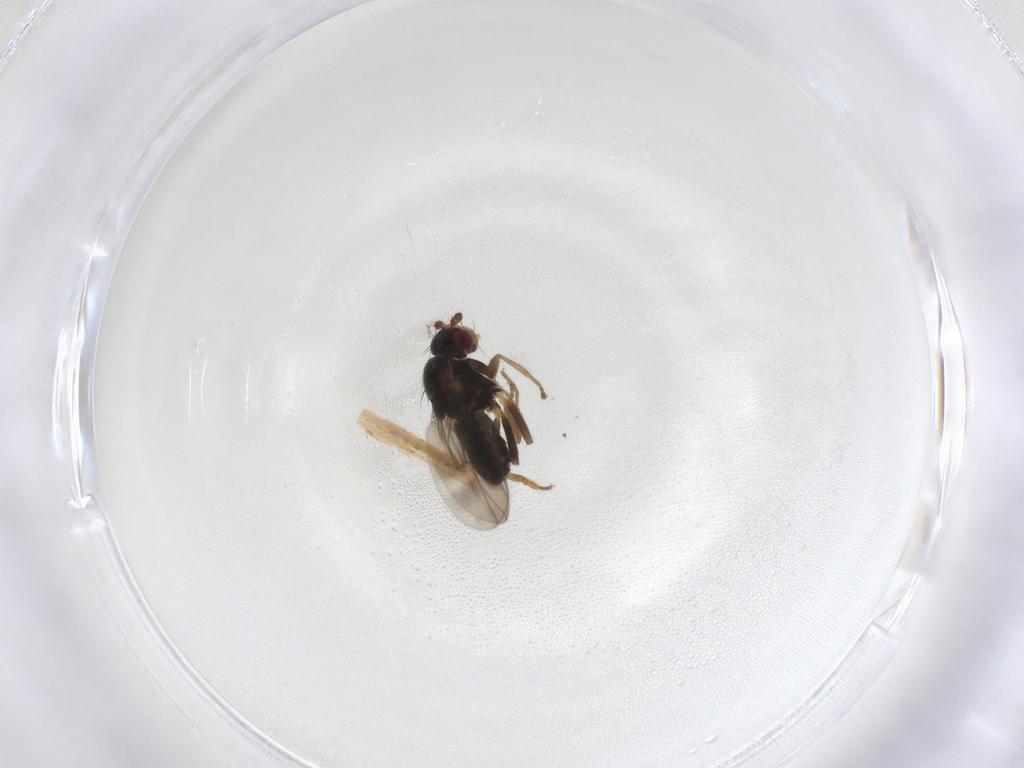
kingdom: Animalia
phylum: Arthropoda
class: Insecta
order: Diptera
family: Sphaeroceridae
